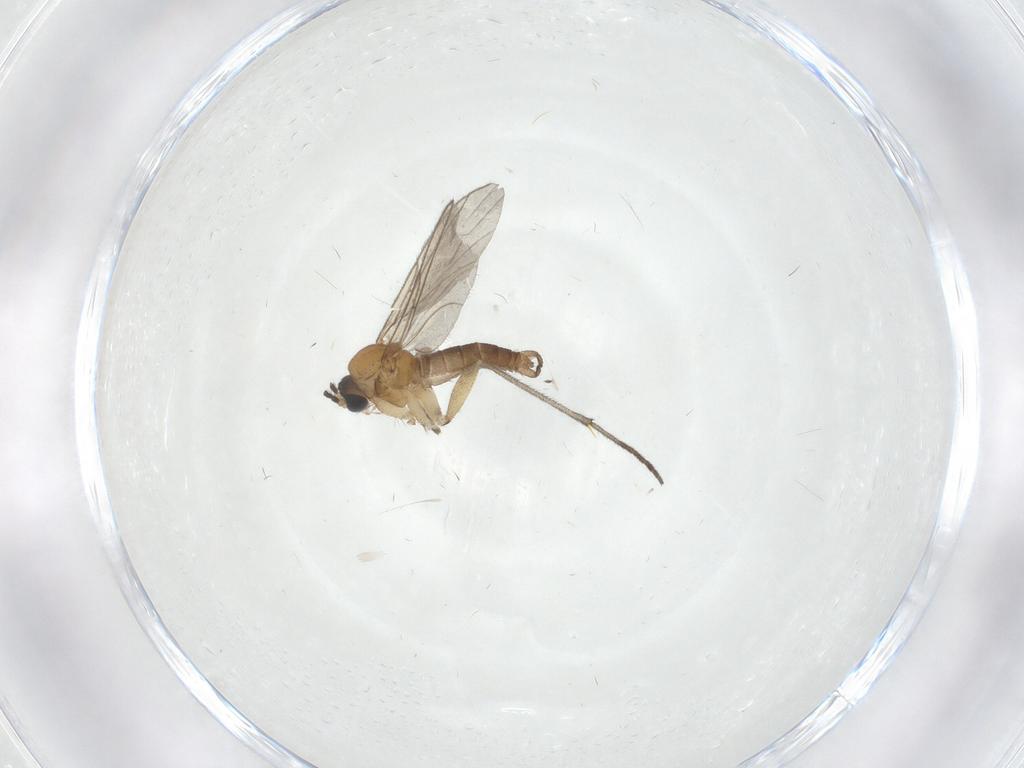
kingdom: Animalia
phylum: Arthropoda
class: Insecta
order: Diptera
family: Sciaridae
